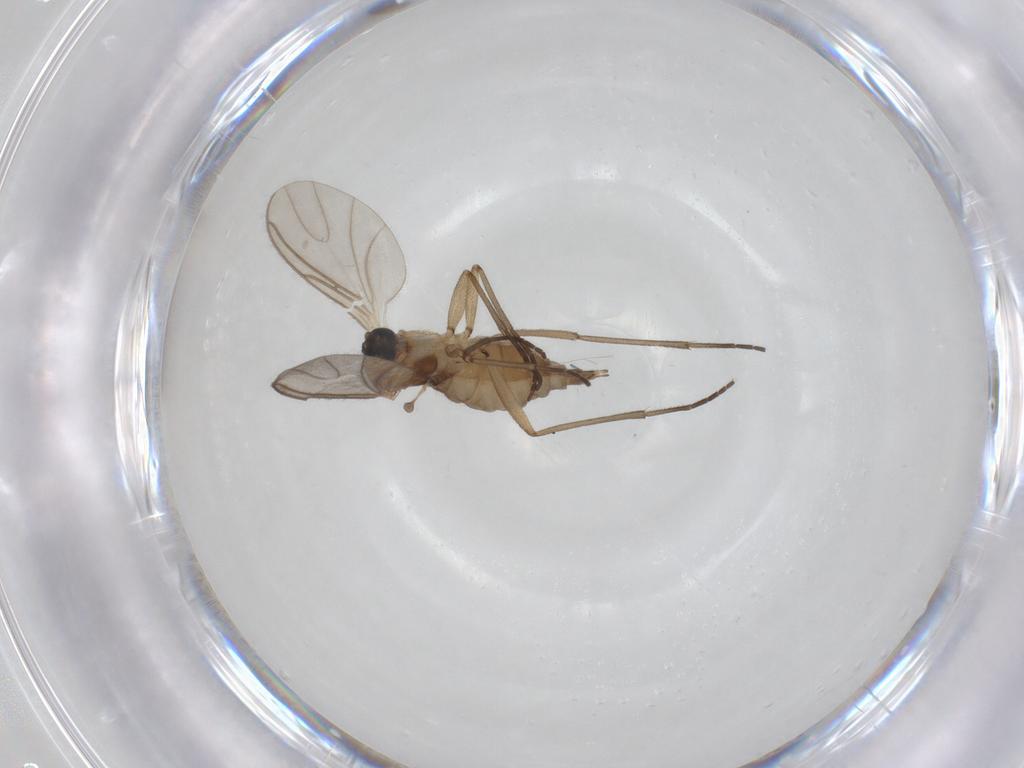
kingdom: Animalia
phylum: Arthropoda
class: Insecta
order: Diptera
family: Sciaridae
